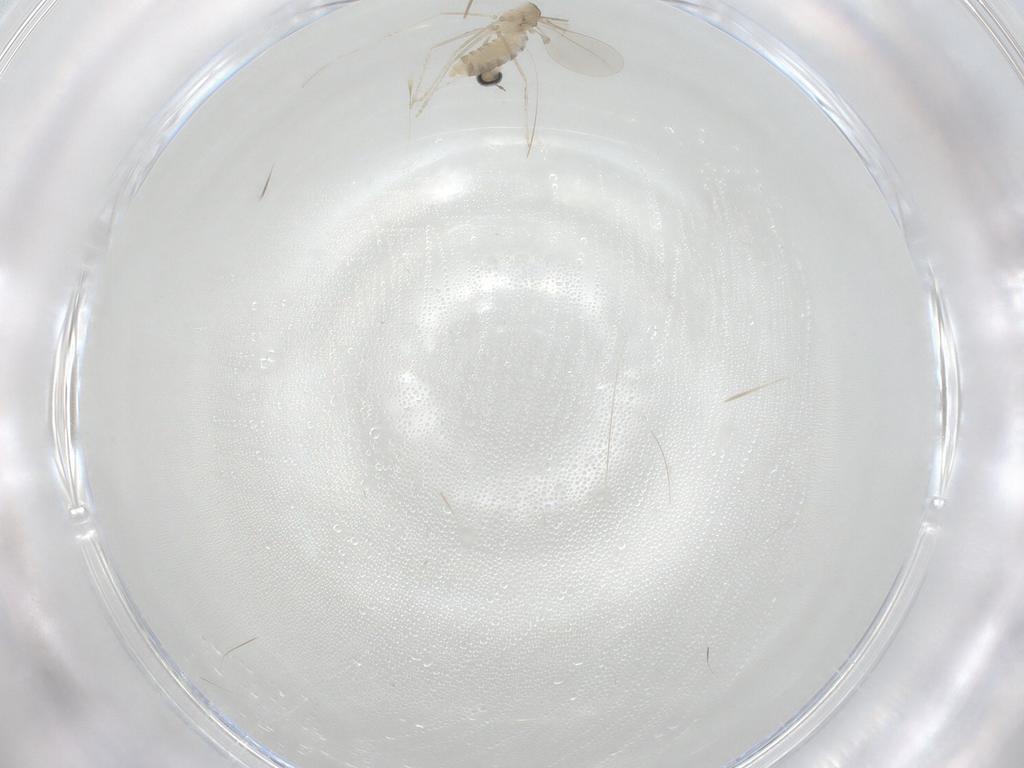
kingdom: Animalia
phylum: Arthropoda
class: Insecta
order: Diptera
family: Cecidomyiidae
